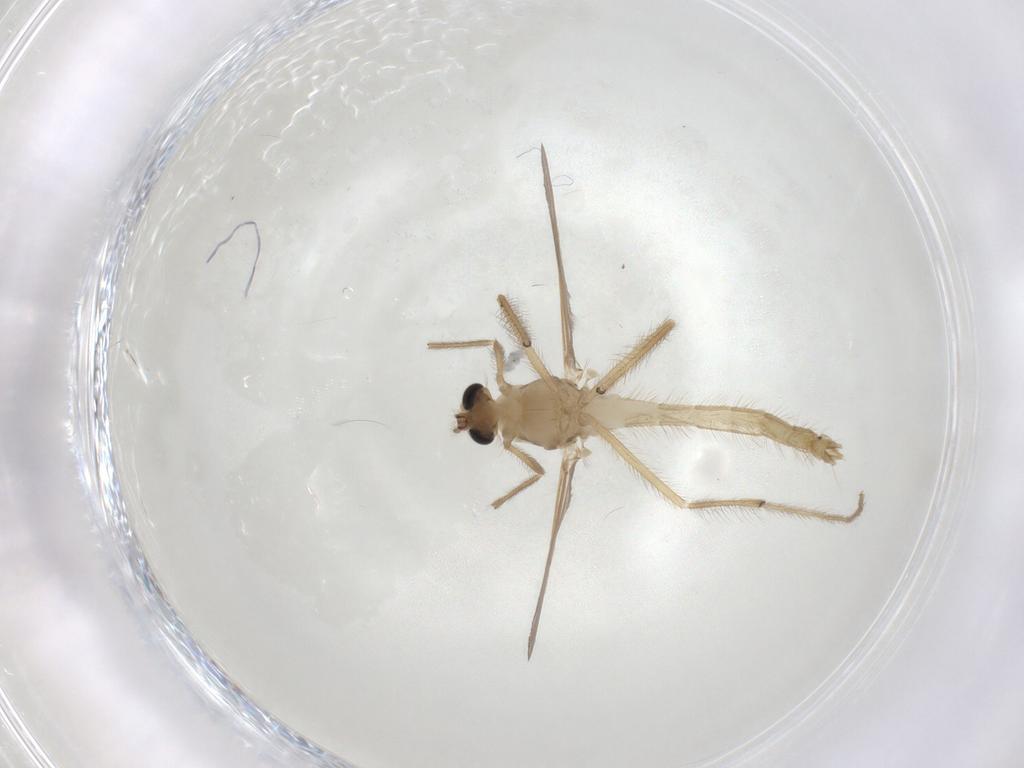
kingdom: Animalia
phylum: Arthropoda
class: Insecta
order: Diptera
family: Chironomidae
